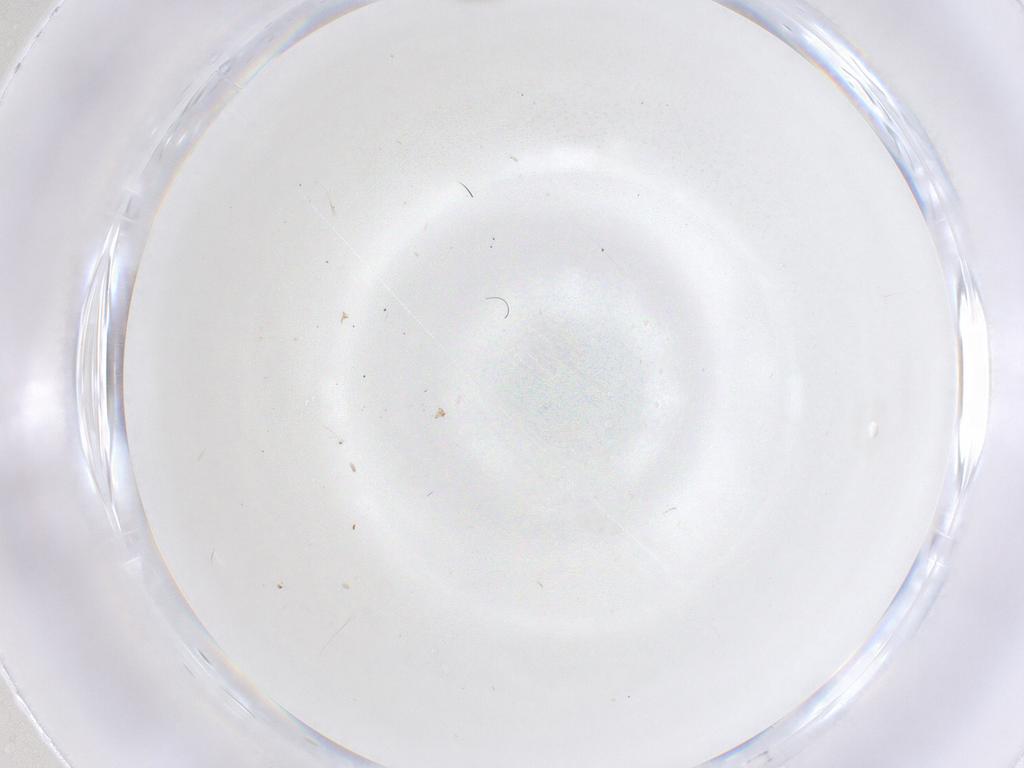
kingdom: Animalia
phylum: Arthropoda
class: Insecta
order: Diptera
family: Cecidomyiidae
